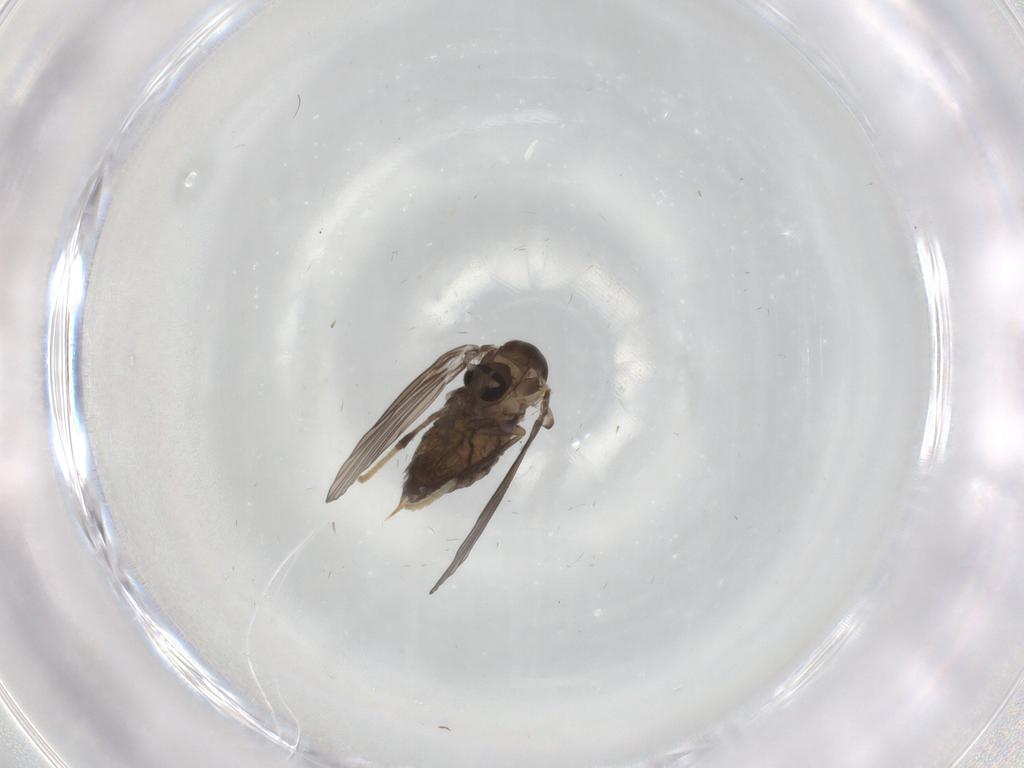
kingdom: Animalia
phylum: Arthropoda
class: Insecta
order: Diptera
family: Psychodidae
